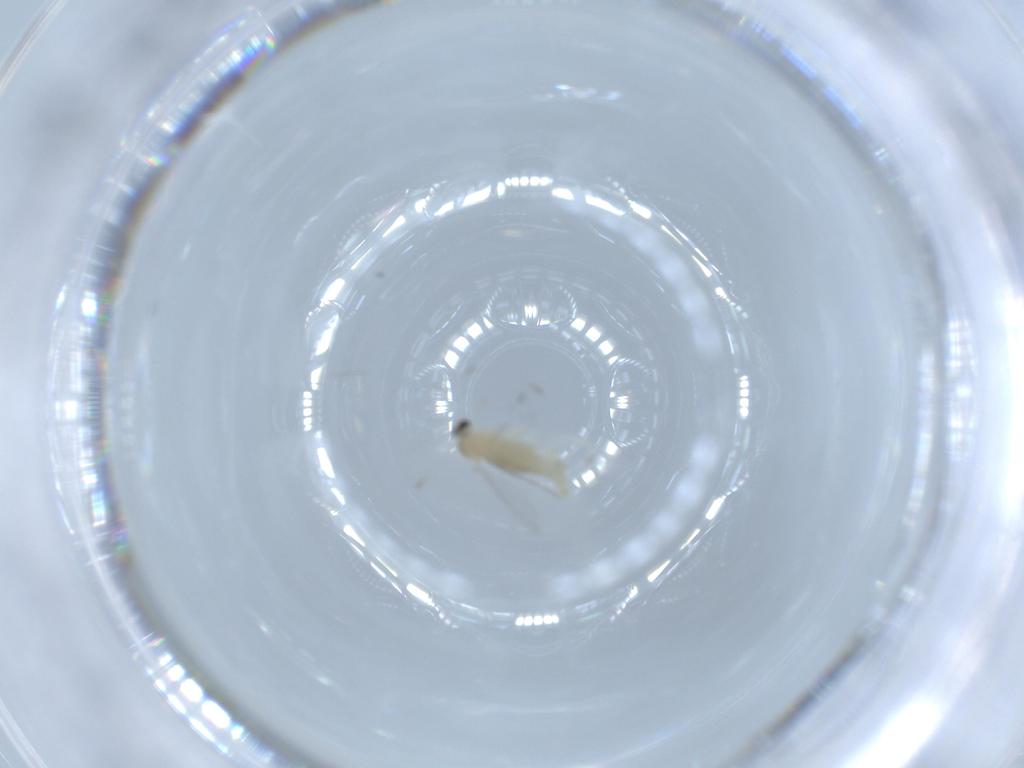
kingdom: Animalia
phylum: Arthropoda
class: Insecta
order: Diptera
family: Cecidomyiidae
